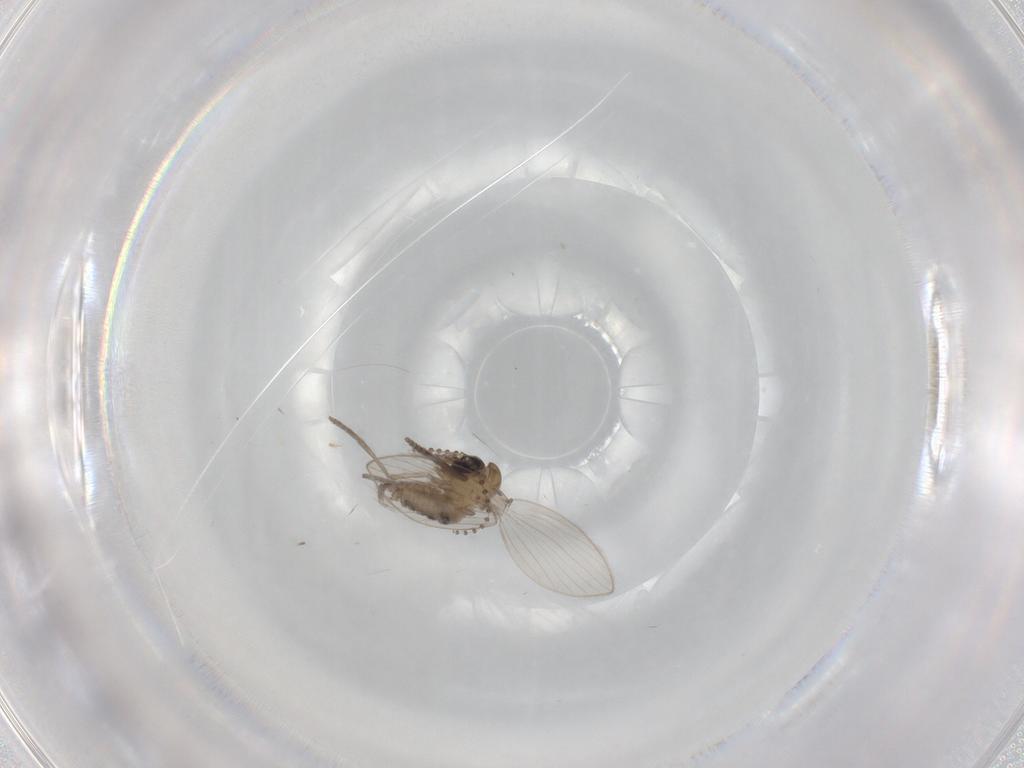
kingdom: Animalia
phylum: Arthropoda
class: Insecta
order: Diptera
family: Psychodidae
